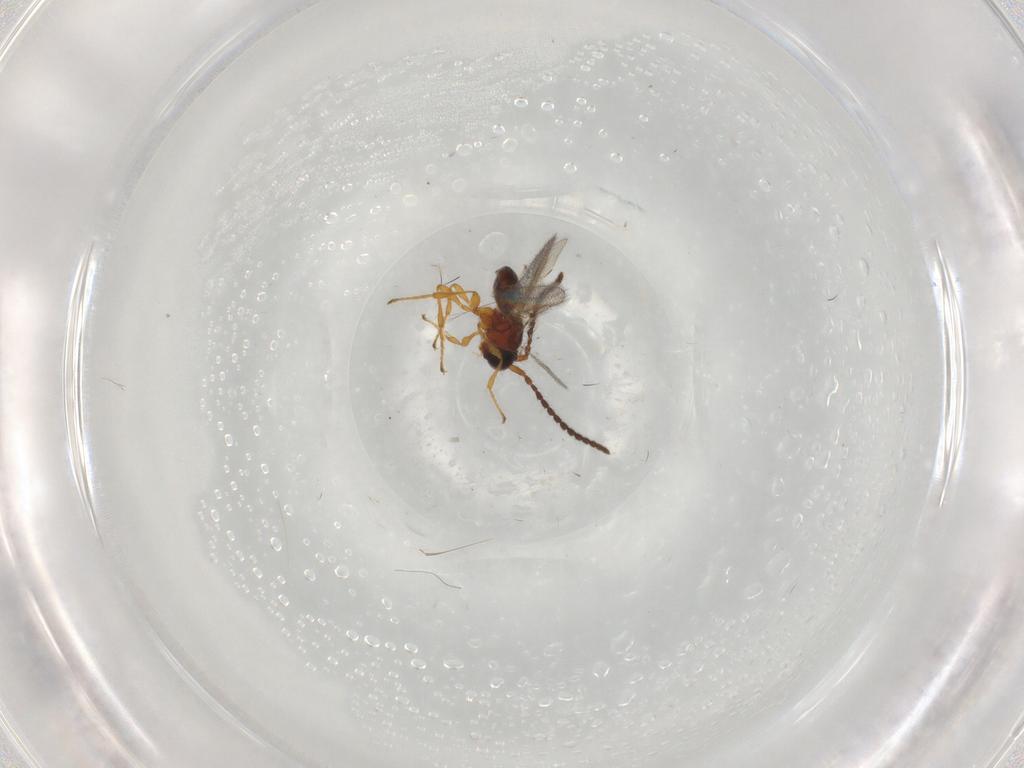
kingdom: Animalia
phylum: Arthropoda
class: Insecta
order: Hymenoptera
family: Diapriidae
